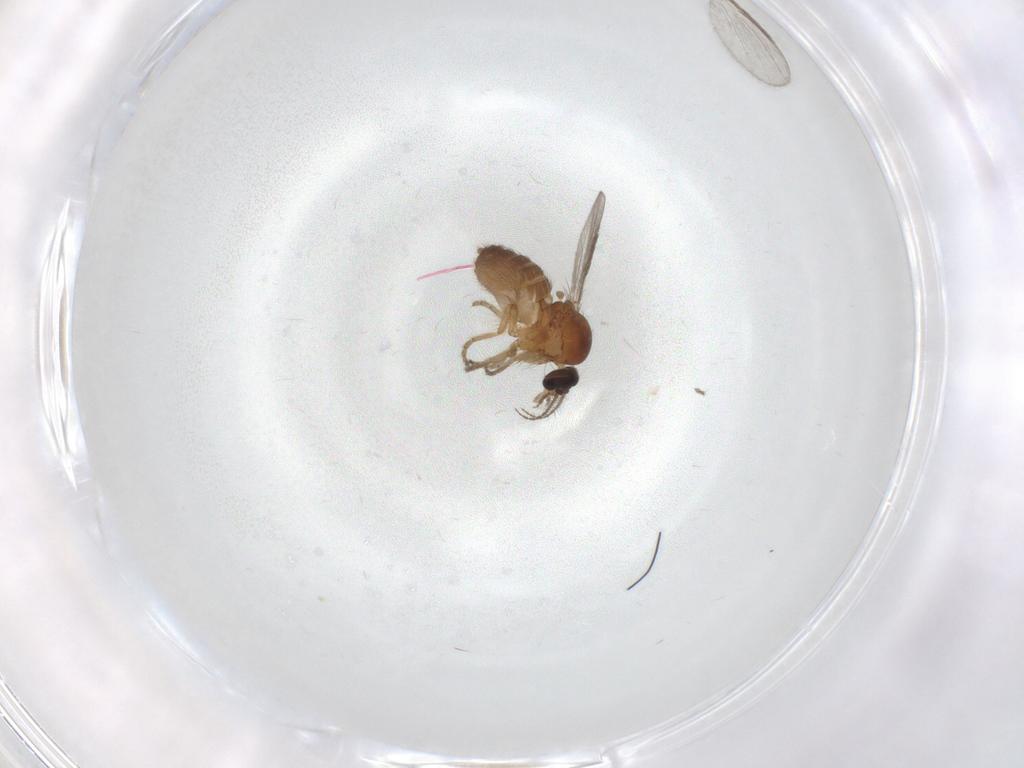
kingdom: Animalia
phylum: Arthropoda
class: Insecta
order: Diptera
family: Ceratopogonidae
